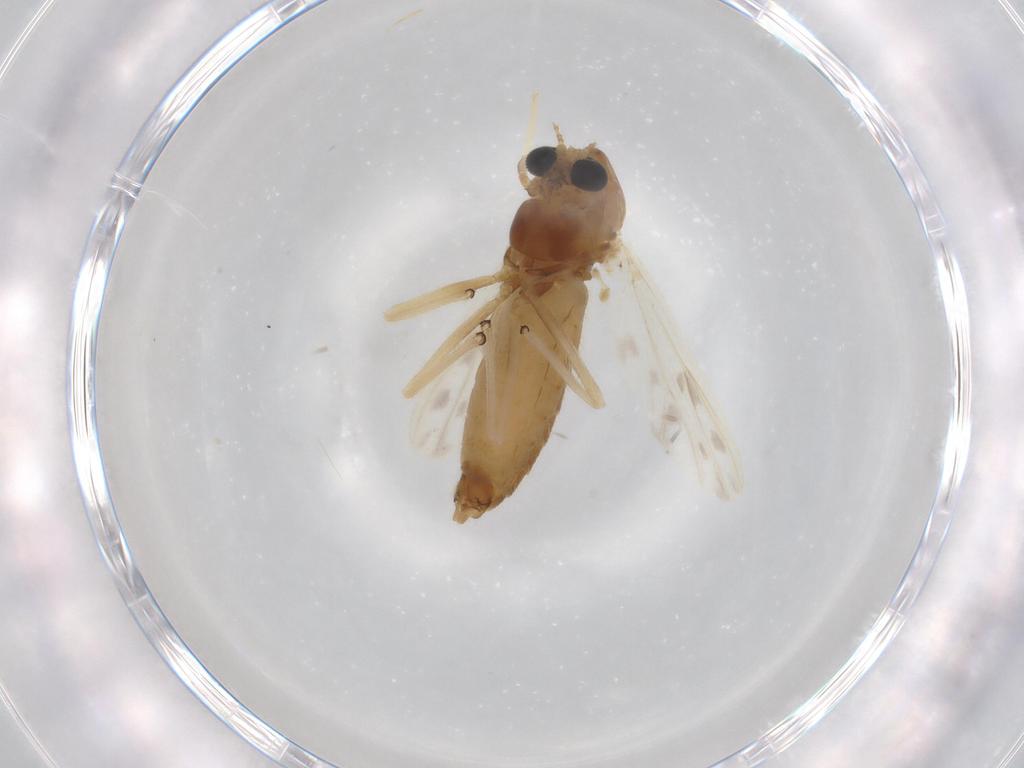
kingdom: Animalia
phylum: Arthropoda
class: Insecta
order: Diptera
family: Chironomidae
